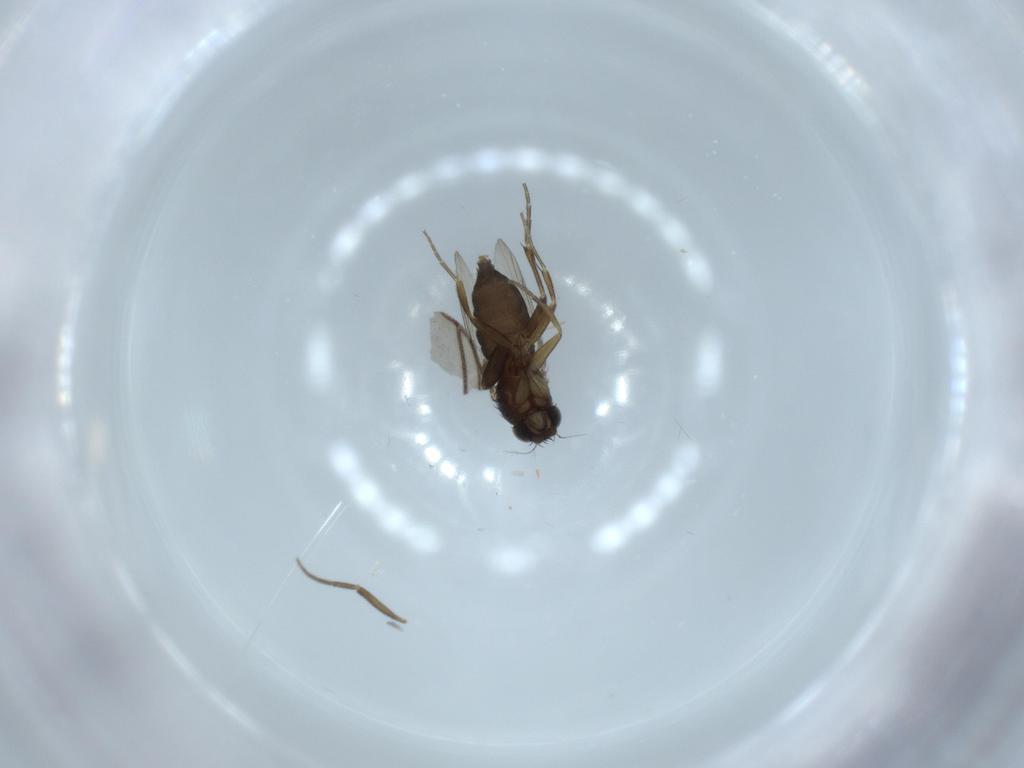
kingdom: Animalia
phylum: Arthropoda
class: Insecta
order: Diptera
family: Phoridae
